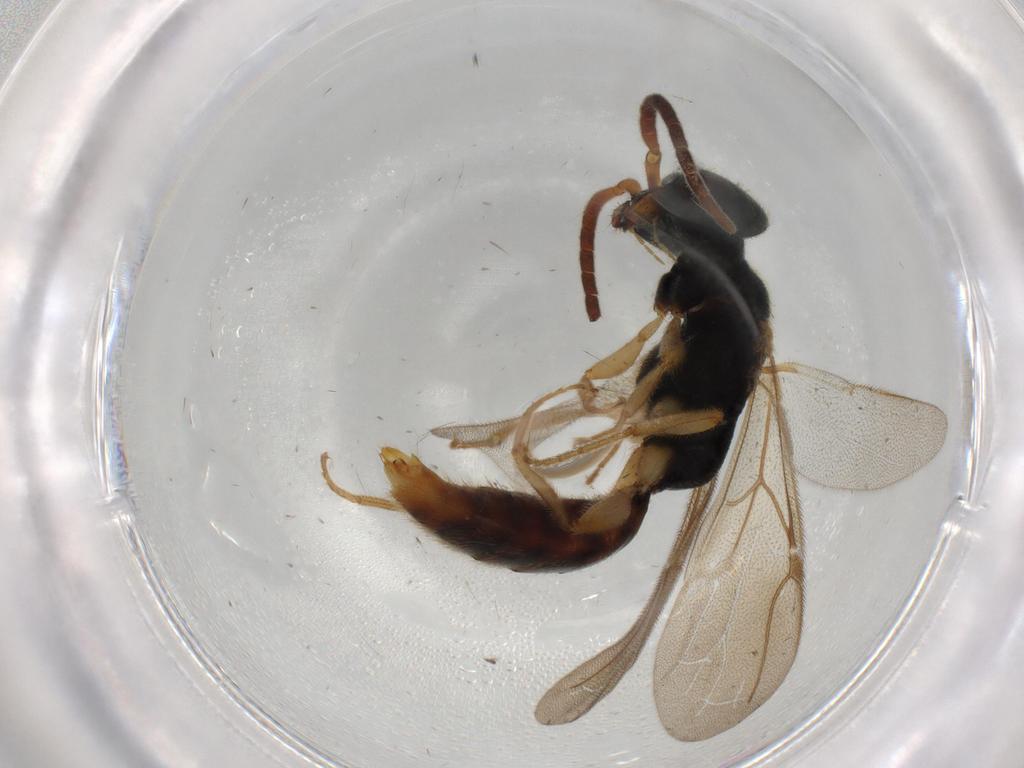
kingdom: Animalia
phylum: Arthropoda
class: Insecta
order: Hymenoptera
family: Bethylidae
